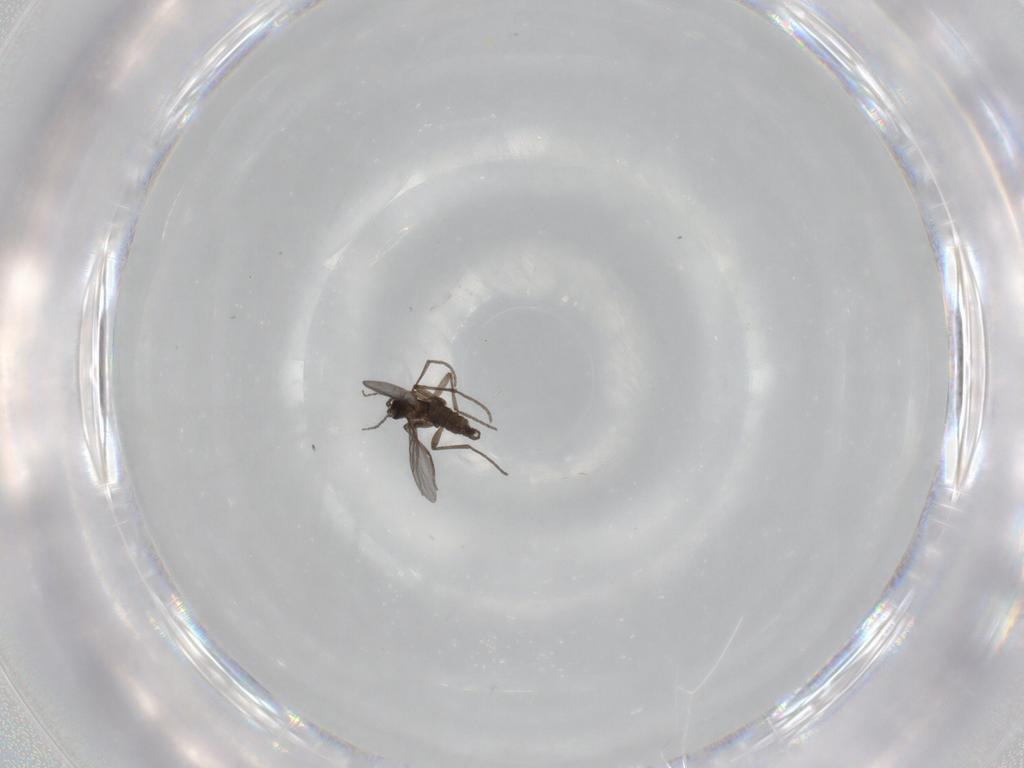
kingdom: Animalia
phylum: Arthropoda
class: Insecta
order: Diptera
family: Sciaridae
